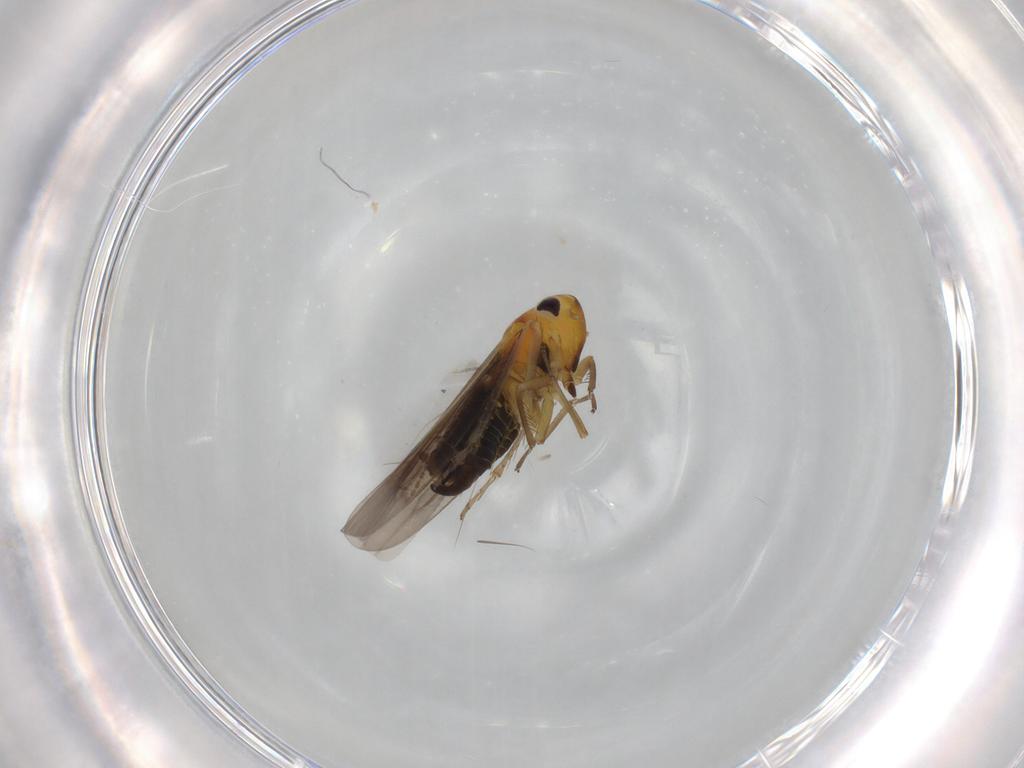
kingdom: Animalia
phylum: Arthropoda
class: Insecta
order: Hemiptera
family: Cicadellidae
